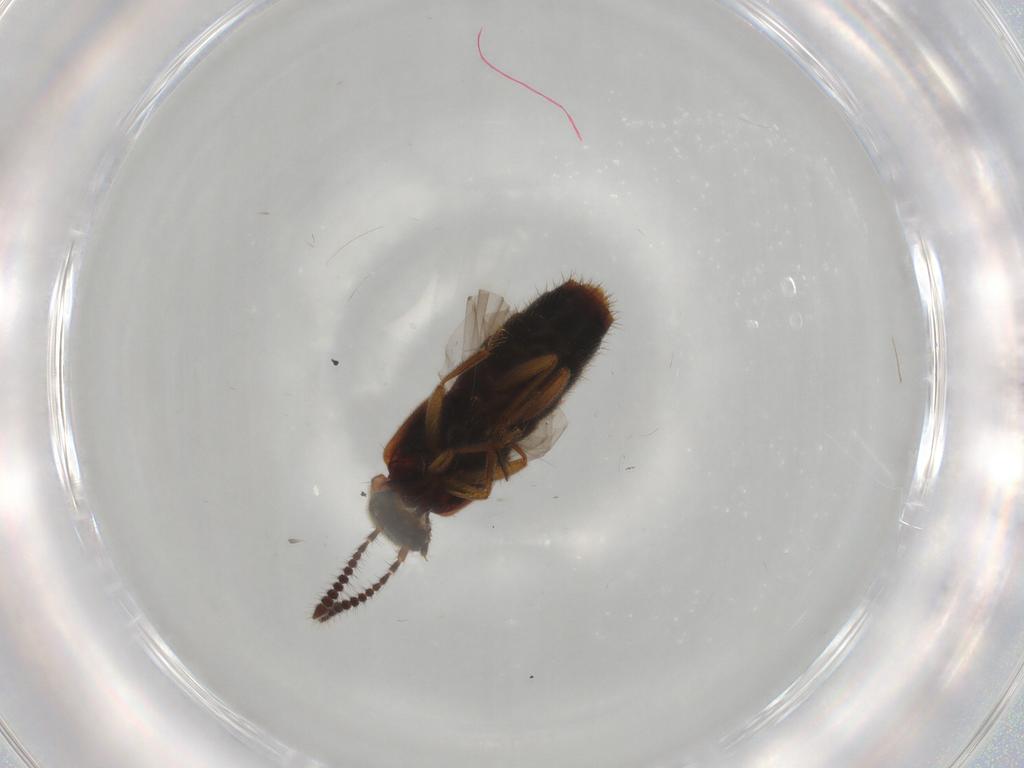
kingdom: Animalia
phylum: Arthropoda
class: Insecta
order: Coleoptera
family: Staphylinidae
